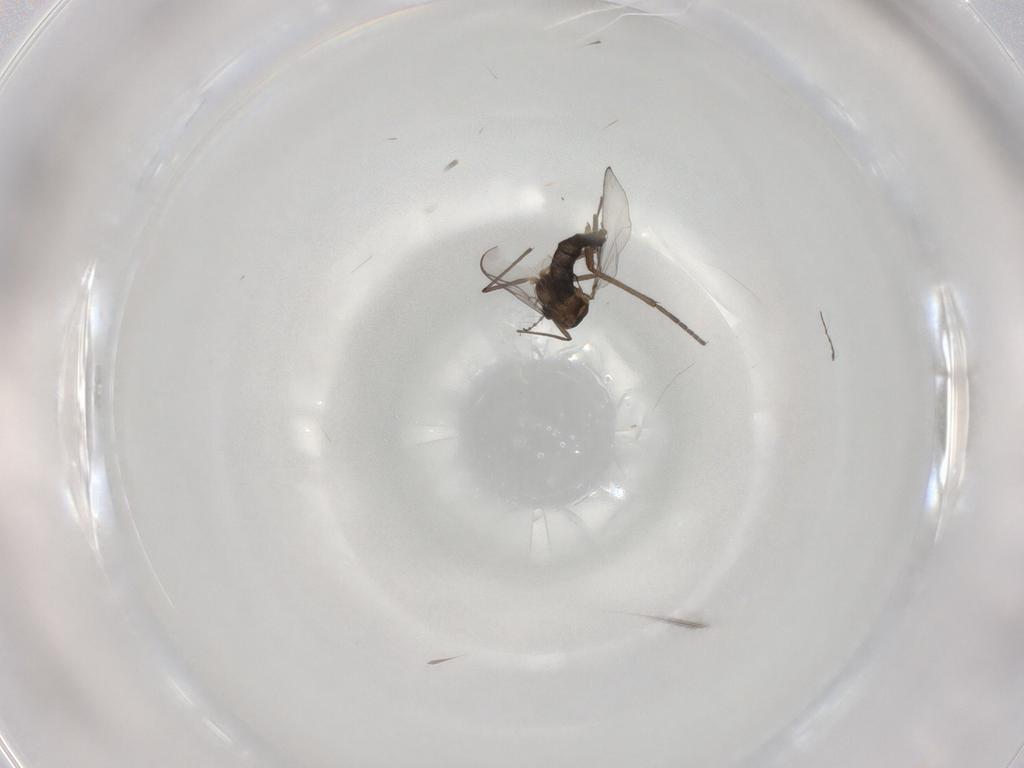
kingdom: Animalia
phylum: Arthropoda
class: Insecta
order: Diptera
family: Sciaridae
